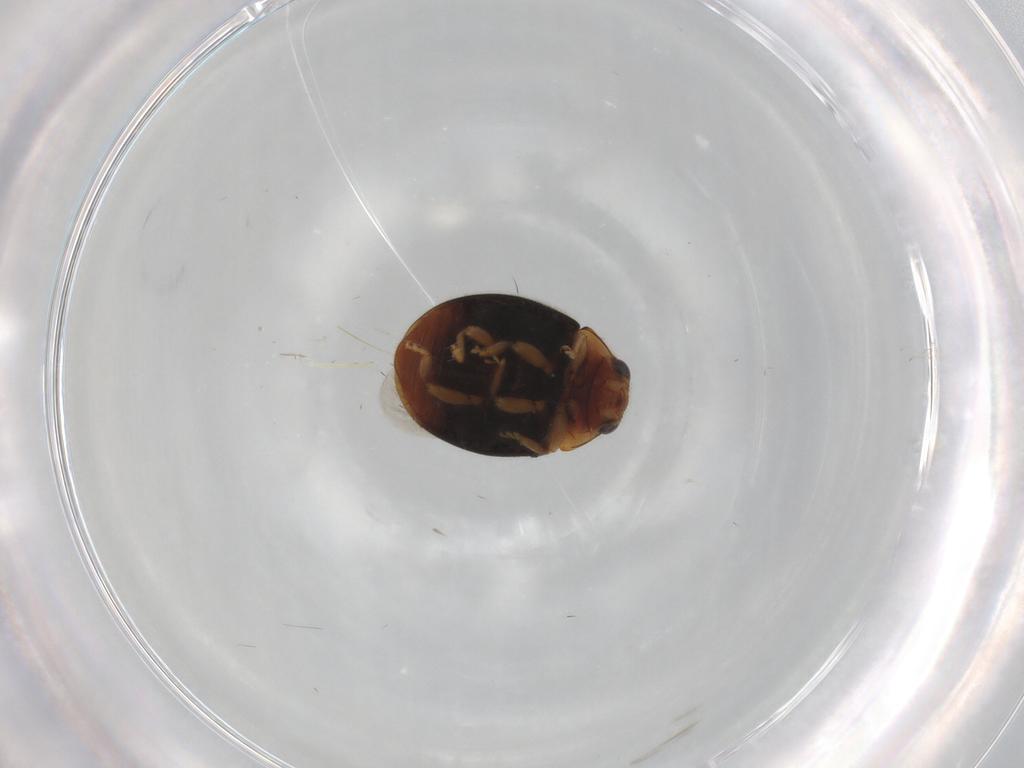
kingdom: Animalia
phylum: Arthropoda
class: Insecta
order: Coleoptera
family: Coccinellidae
